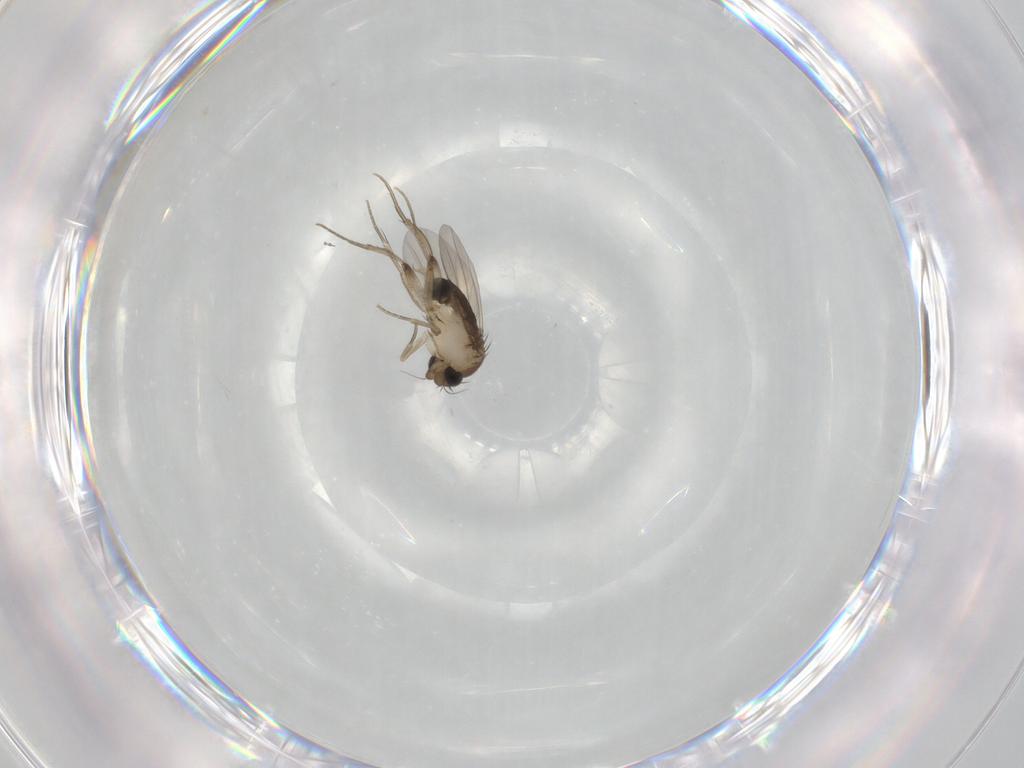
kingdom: Animalia
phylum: Arthropoda
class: Insecta
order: Diptera
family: Phoridae
